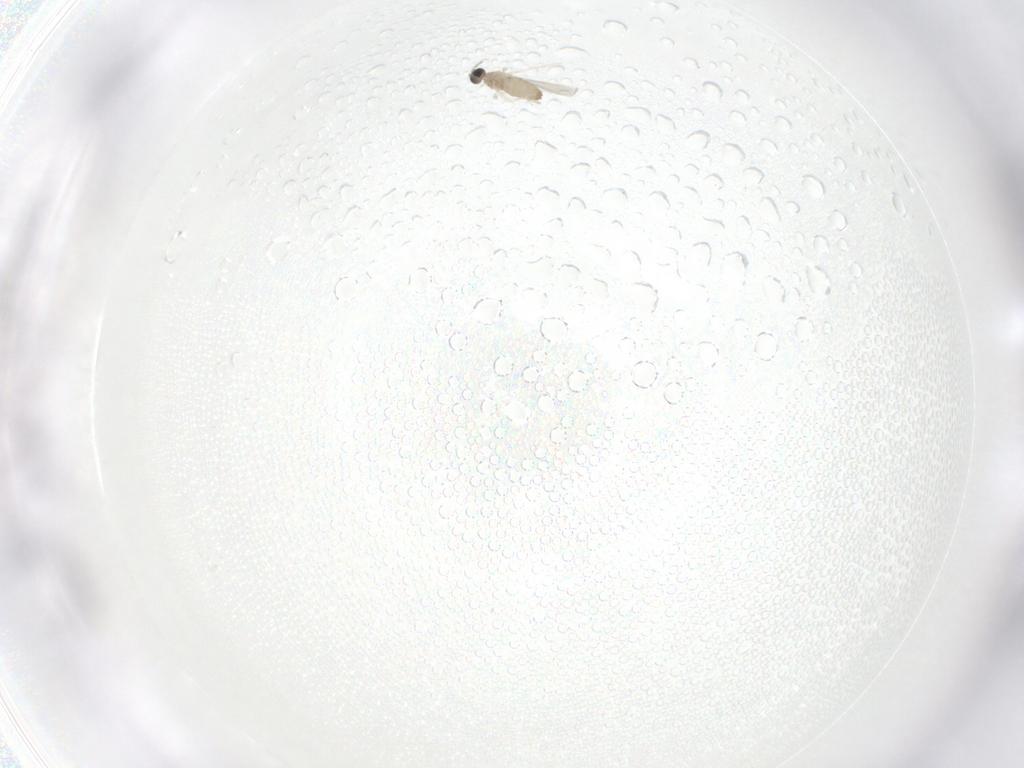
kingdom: Animalia
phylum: Arthropoda
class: Insecta
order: Diptera
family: Cecidomyiidae
